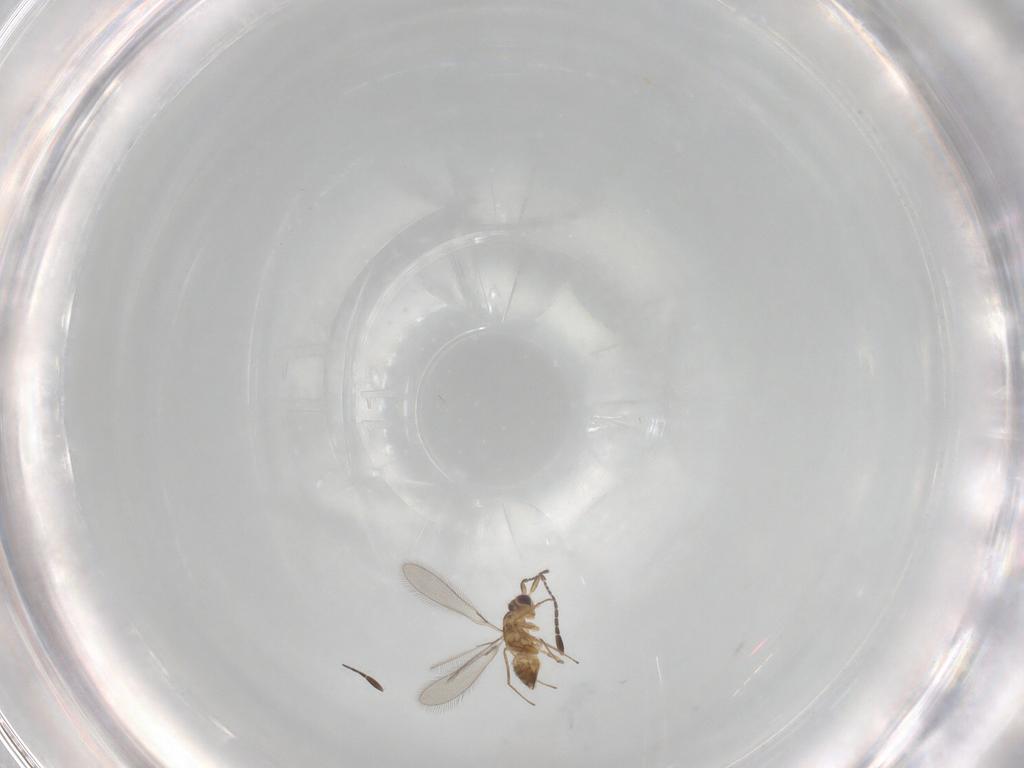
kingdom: Animalia
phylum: Arthropoda
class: Insecta
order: Hymenoptera
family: Mymaridae
